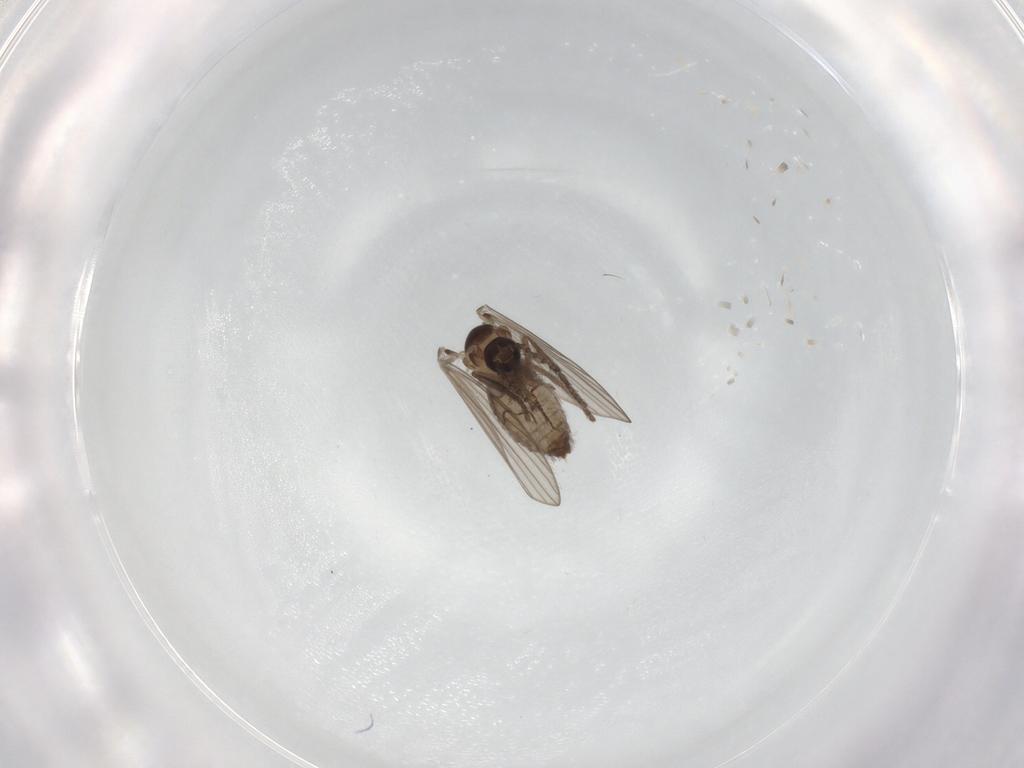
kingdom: Animalia
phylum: Arthropoda
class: Insecta
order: Diptera
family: Psychodidae
